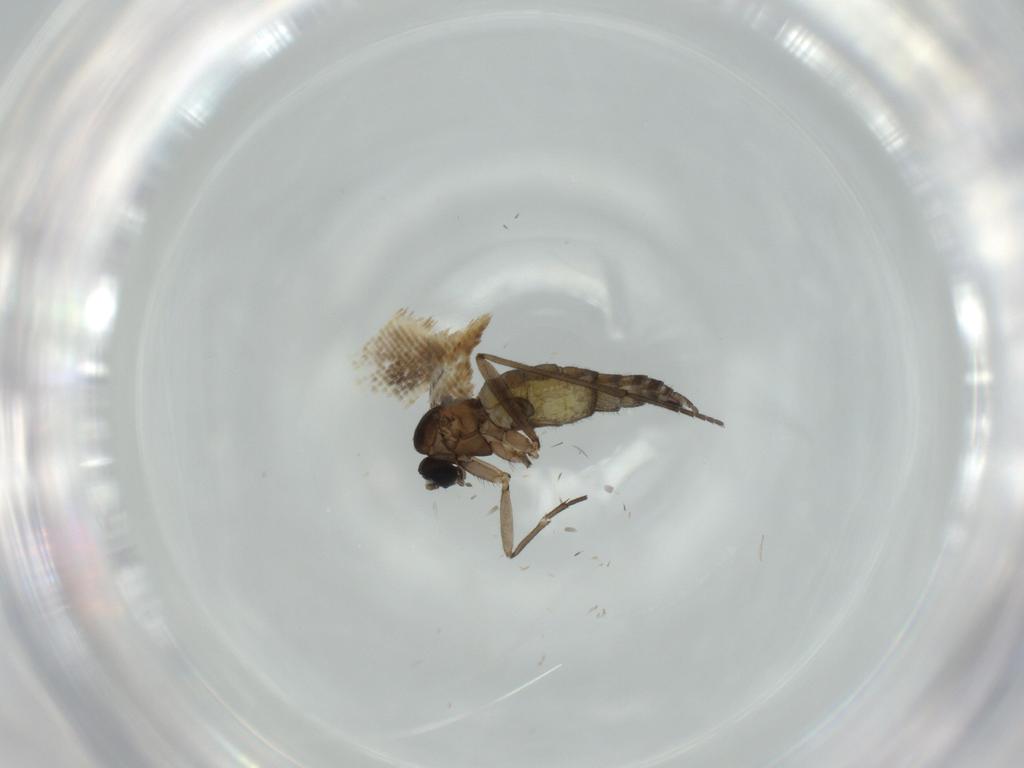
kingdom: Animalia
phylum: Arthropoda
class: Insecta
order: Diptera
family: Sciaridae
